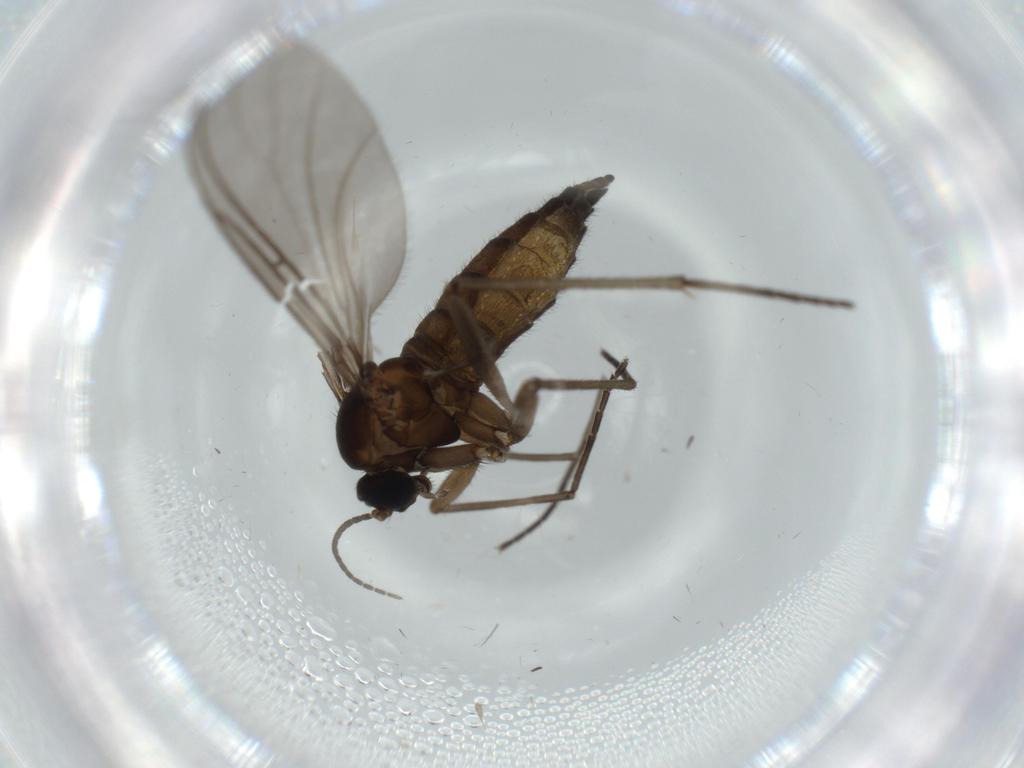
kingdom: Animalia
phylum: Arthropoda
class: Insecta
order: Diptera
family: Sciaridae
